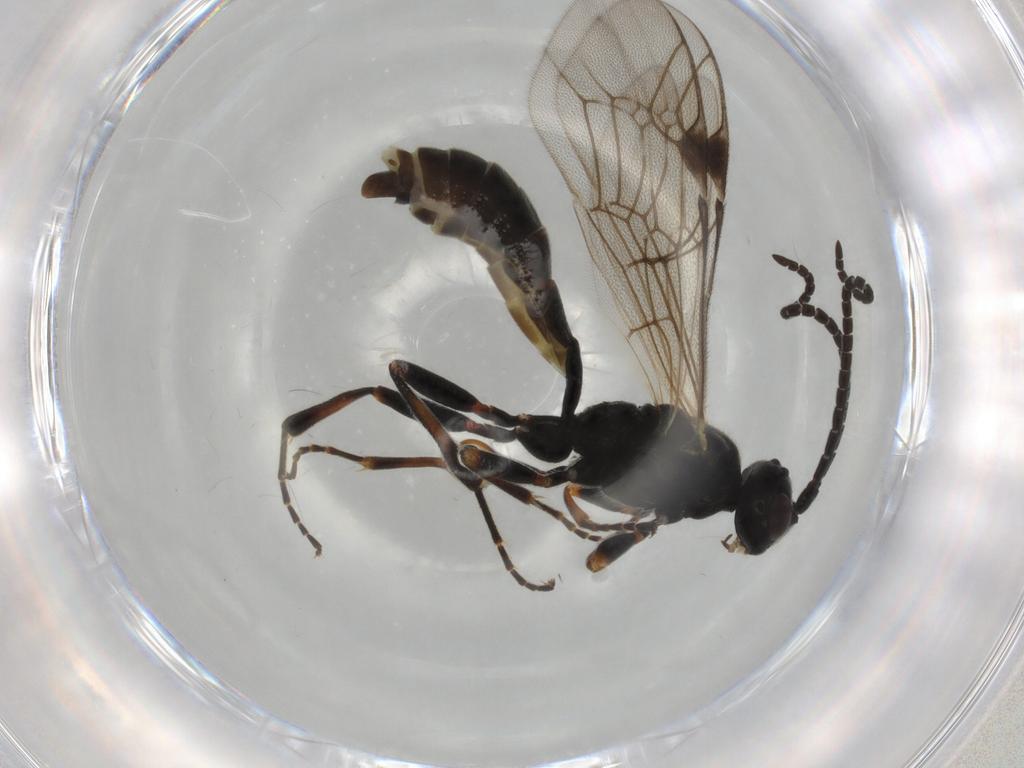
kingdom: Animalia
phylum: Arthropoda
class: Insecta
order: Hymenoptera
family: Ichneumonidae
